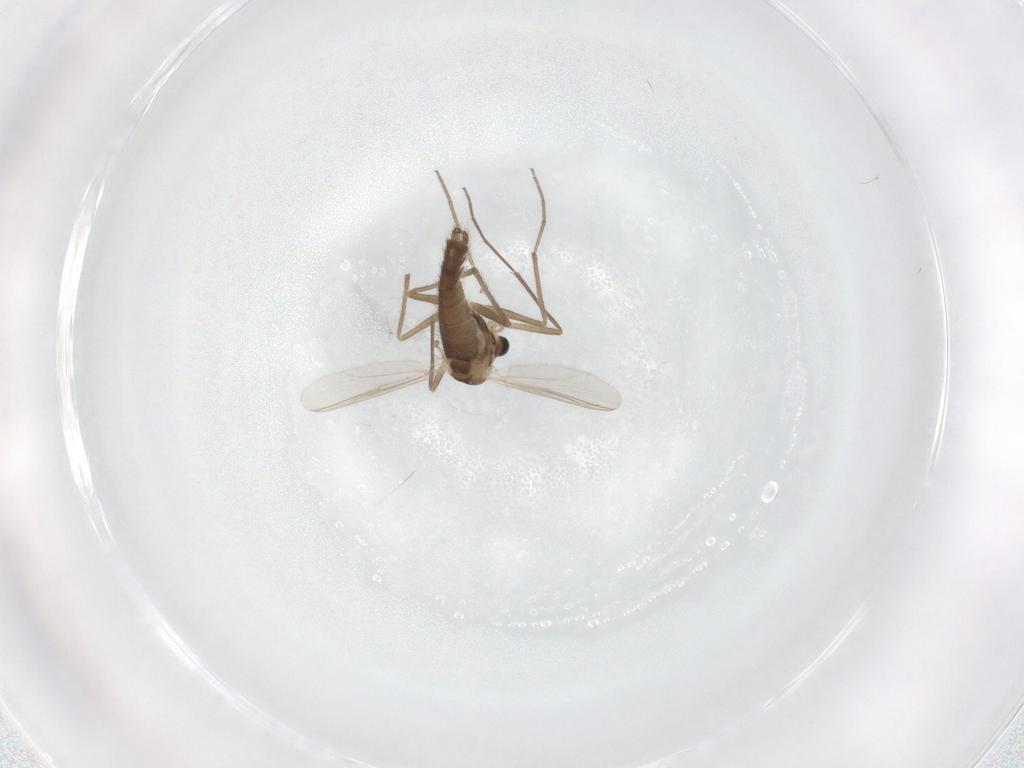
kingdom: Animalia
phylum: Arthropoda
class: Insecta
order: Diptera
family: Chironomidae
